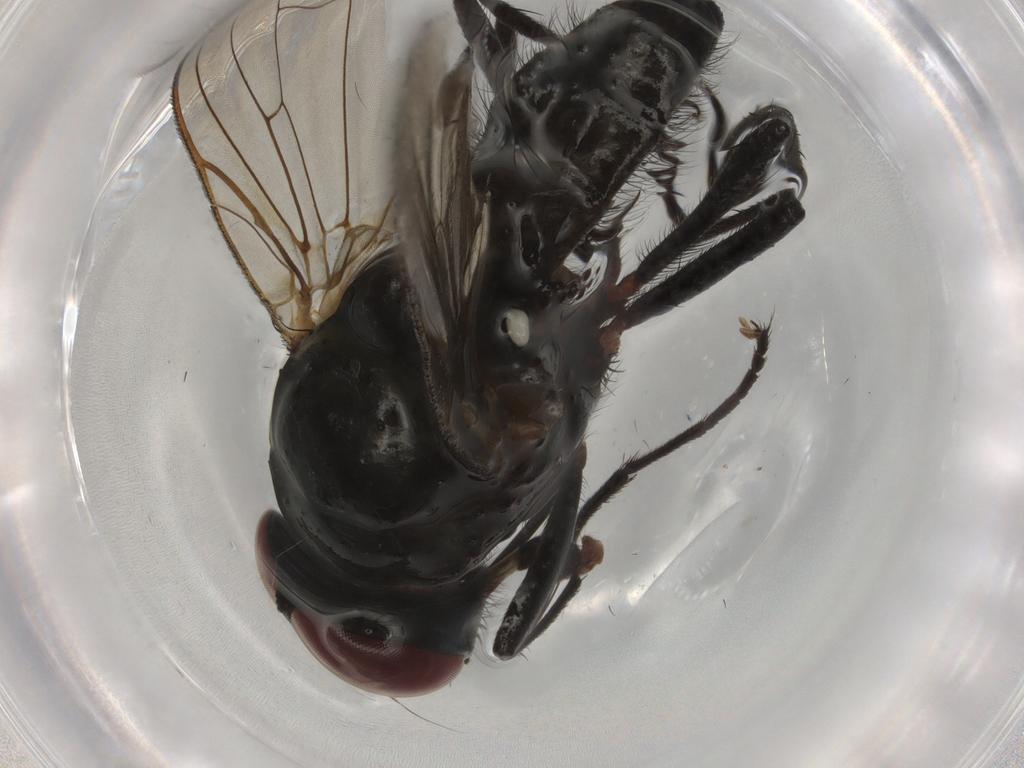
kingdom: Animalia
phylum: Arthropoda
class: Insecta
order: Diptera
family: Anthomyiidae
